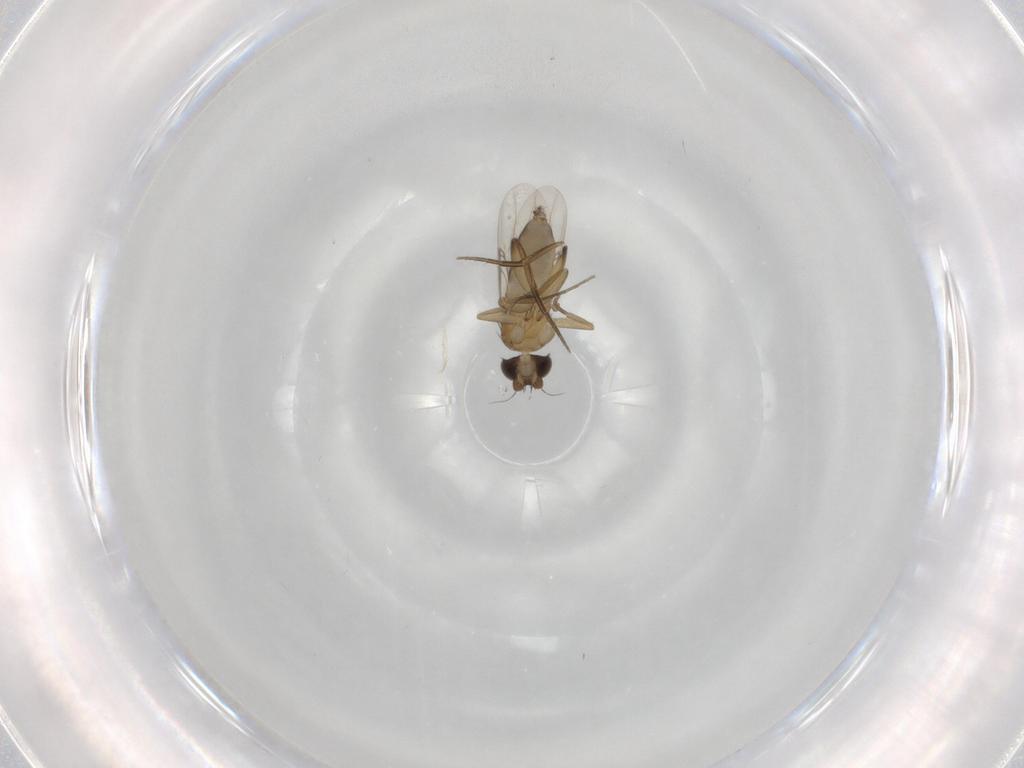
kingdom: Animalia
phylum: Arthropoda
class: Insecta
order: Diptera
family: Phoridae
